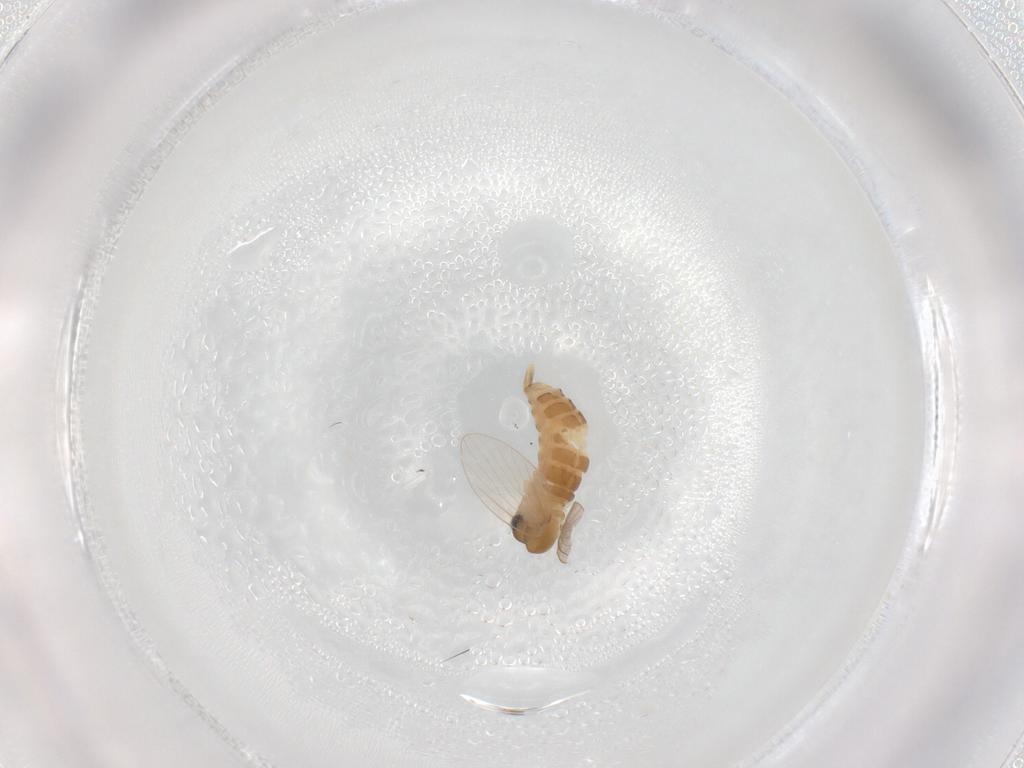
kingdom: Animalia
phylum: Arthropoda
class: Insecta
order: Diptera
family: Psychodidae
